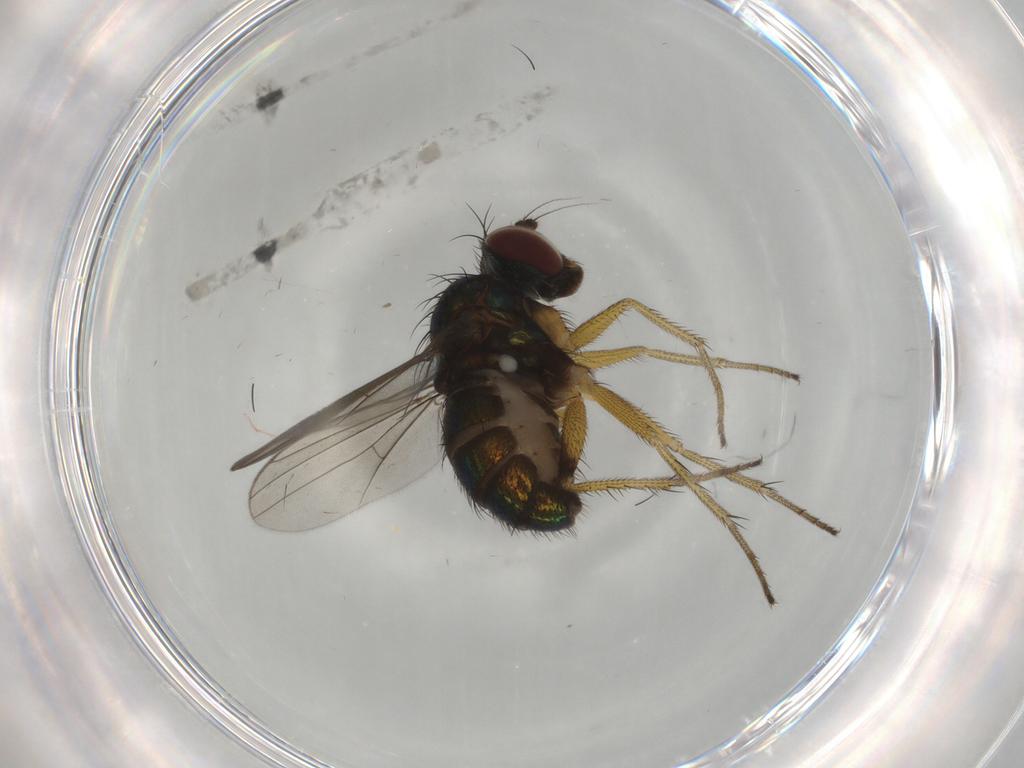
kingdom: Animalia
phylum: Arthropoda
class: Insecta
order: Diptera
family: Dolichopodidae
